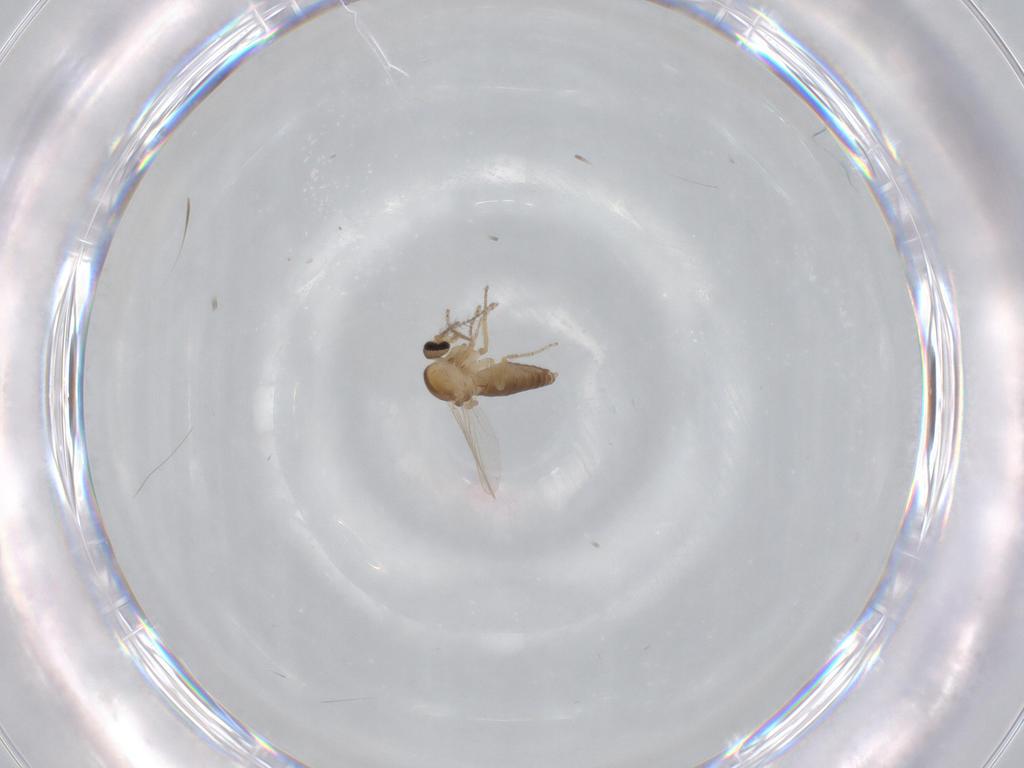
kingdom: Animalia
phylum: Arthropoda
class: Insecta
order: Diptera
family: Ceratopogonidae
